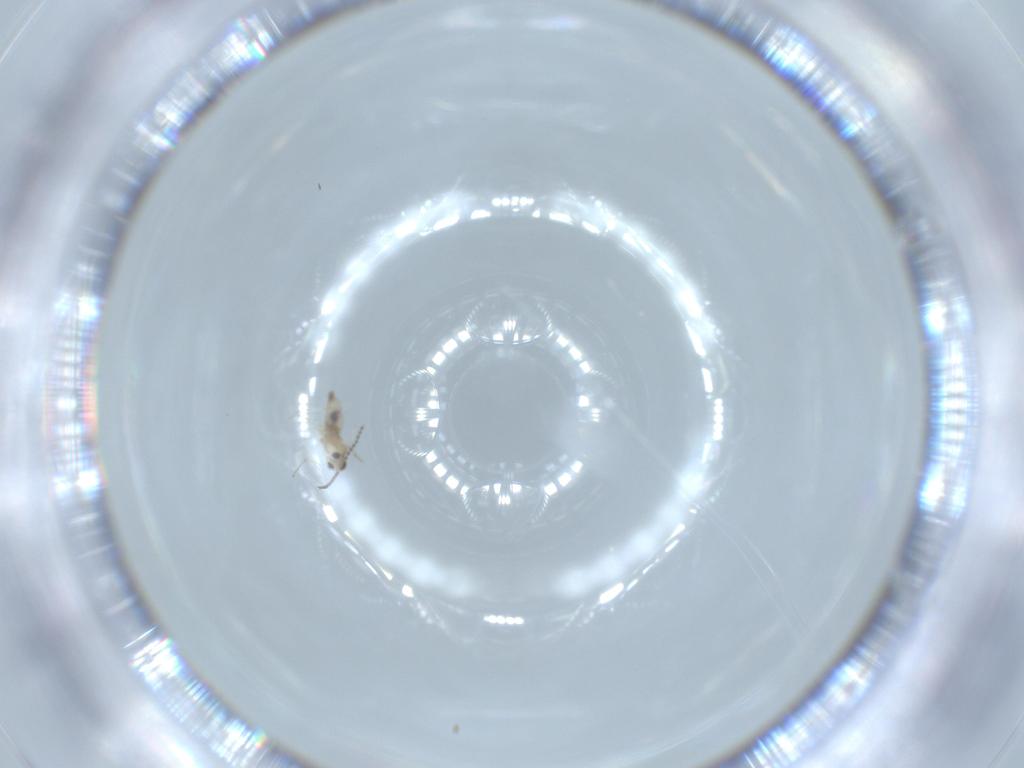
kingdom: Animalia
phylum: Arthropoda
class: Insecta
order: Diptera
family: Cecidomyiidae
